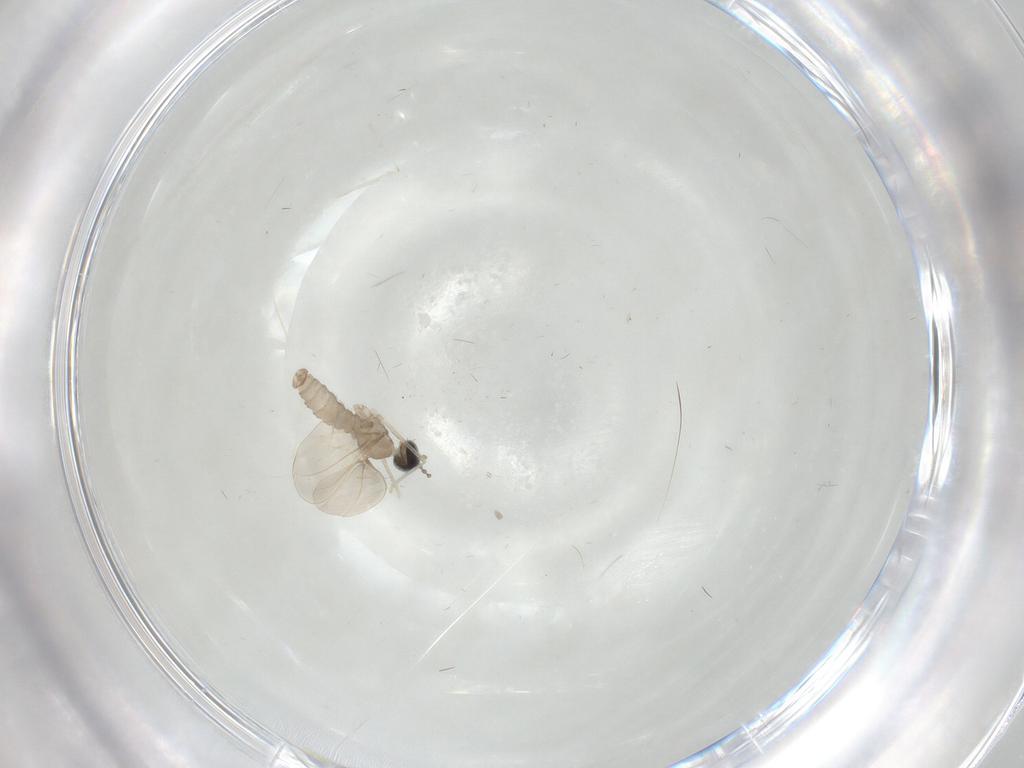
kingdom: Animalia
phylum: Arthropoda
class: Insecta
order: Diptera
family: Cecidomyiidae
